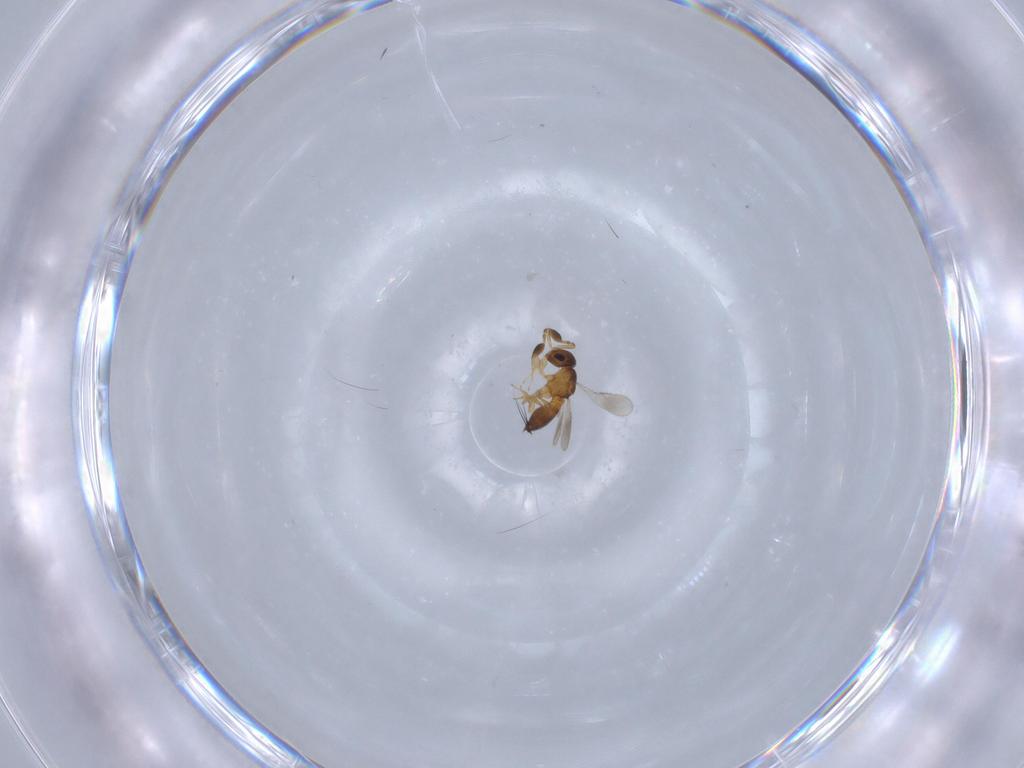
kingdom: Animalia
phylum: Arthropoda
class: Insecta
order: Hymenoptera
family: Scelionidae
